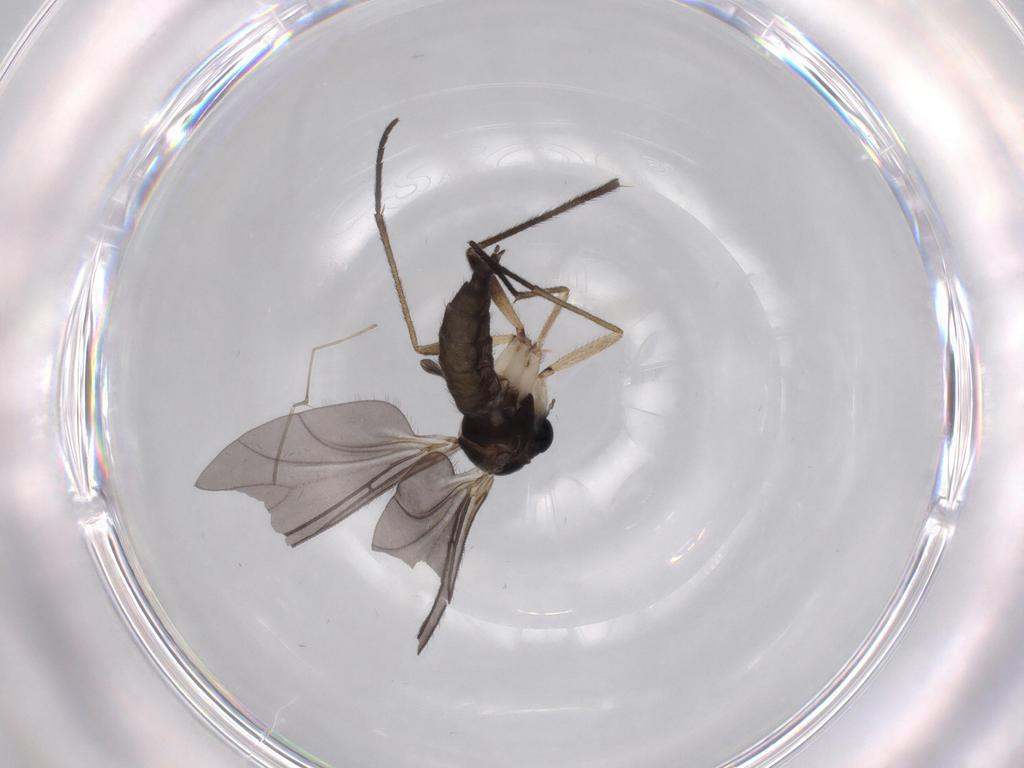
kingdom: Animalia
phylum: Arthropoda
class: Insecta
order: Diptera
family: Cecidomyiidae
